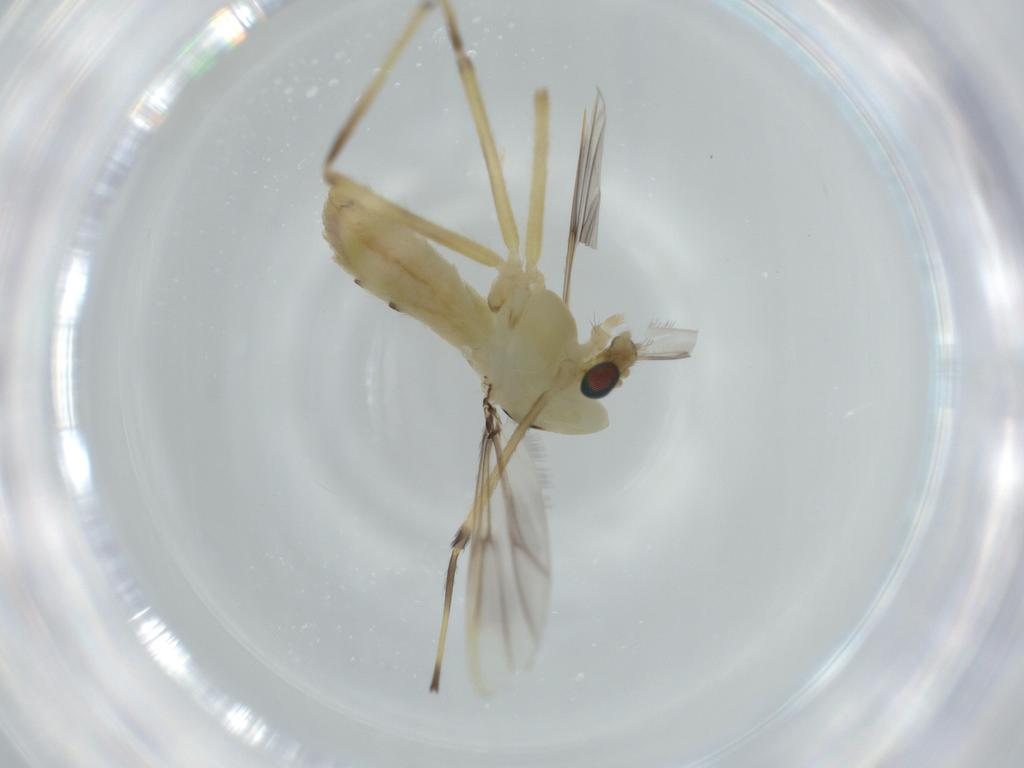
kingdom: Animalia
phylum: Arthropoda
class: Insecta
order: Diptera
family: Chironomidae
